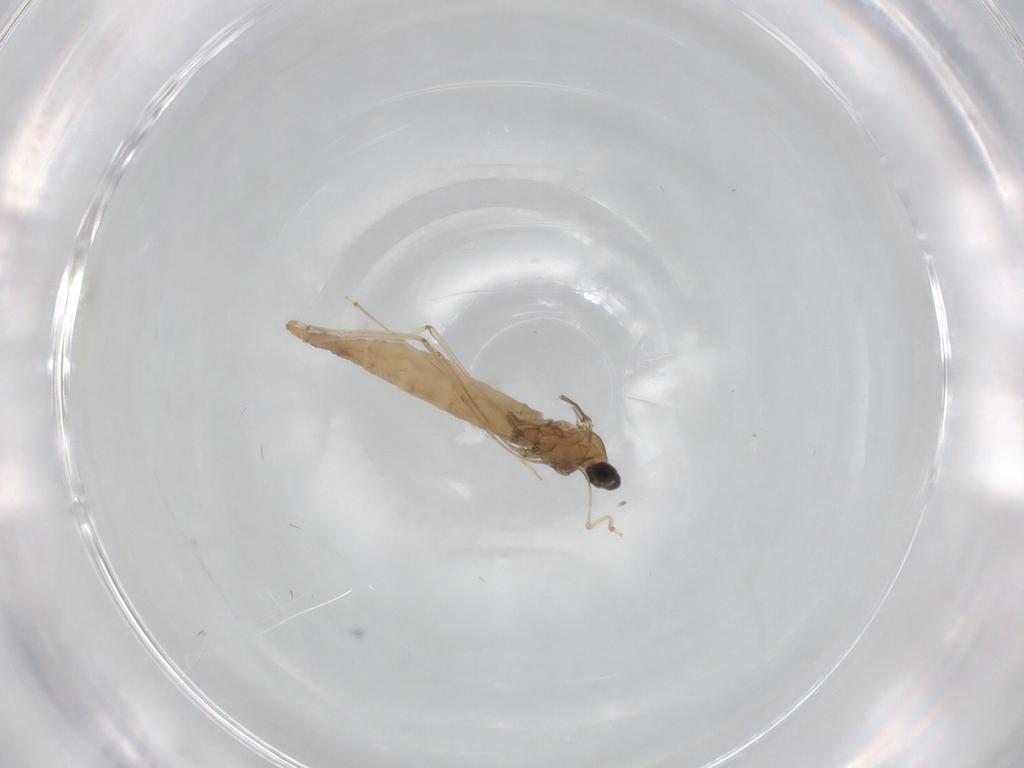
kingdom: Animalia
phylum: Arthropoda
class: Insecta
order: Diptera
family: Cecidomyiidae
